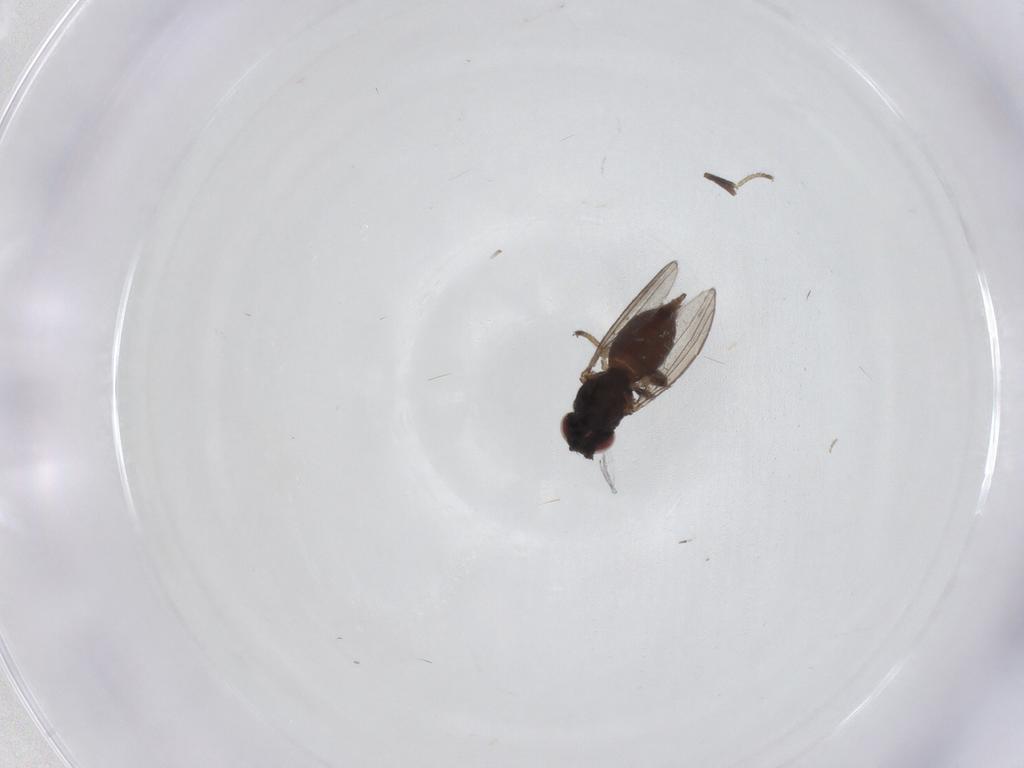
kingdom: Animalia
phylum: Arthropoda
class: Insecta
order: Diptera
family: Milichiidae
